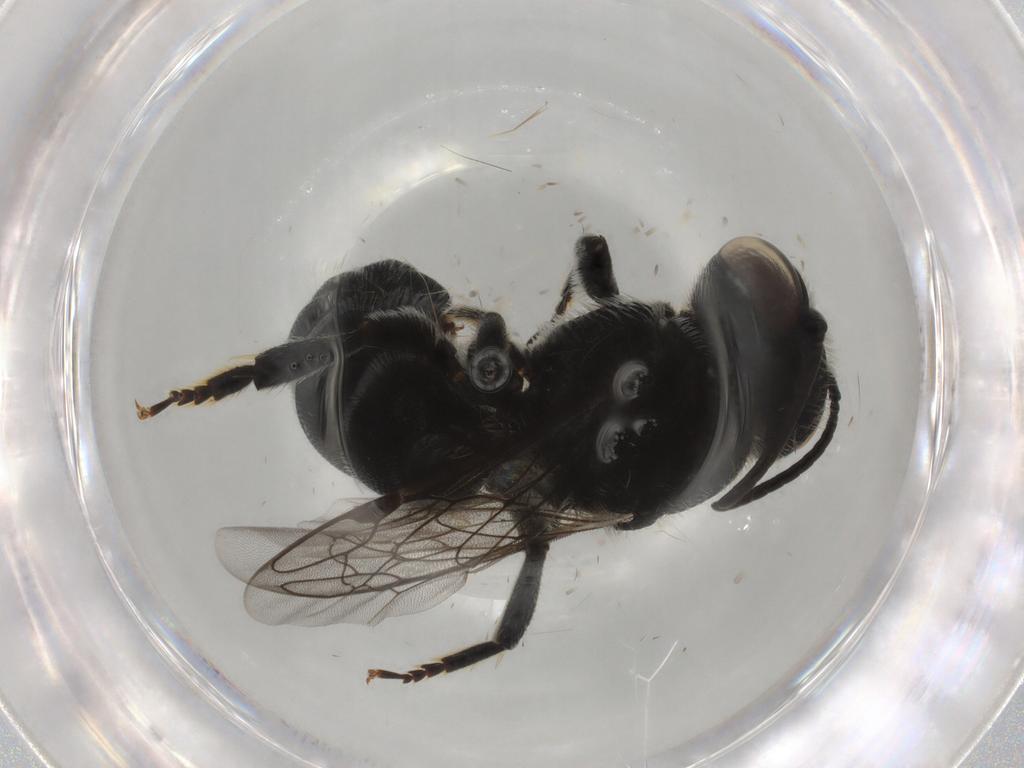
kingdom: Animalia
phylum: Arthropoda
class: Insecta
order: Hymenoptera
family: Megachilidae
